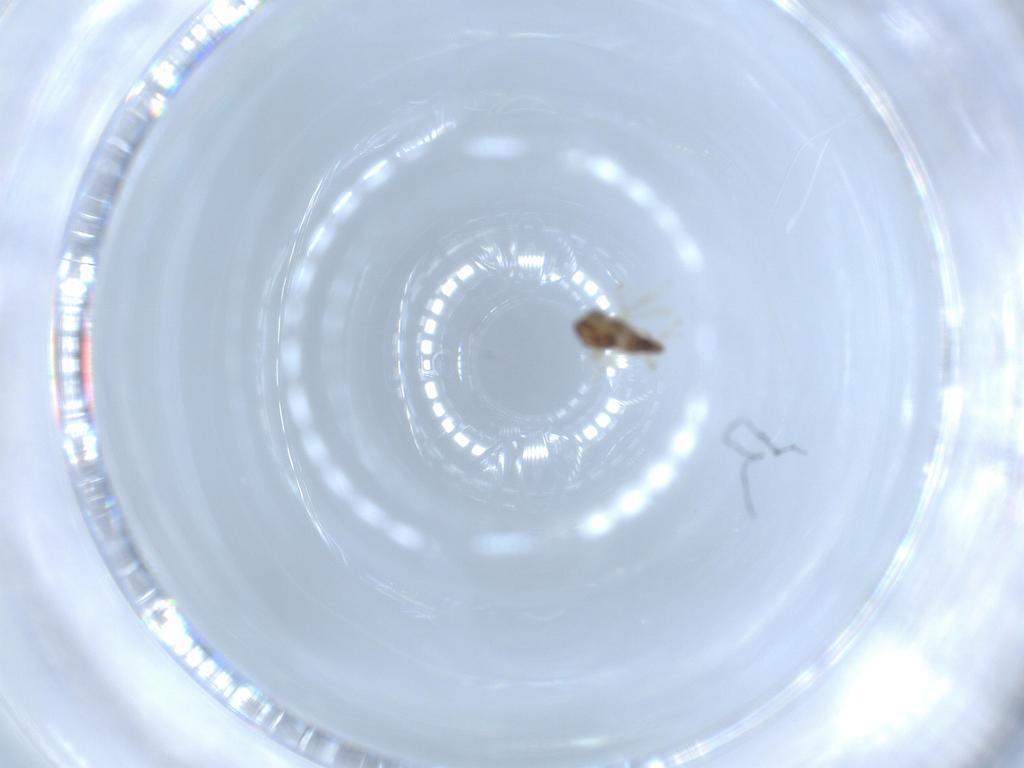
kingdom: Animalia
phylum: Arthropoda
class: Insecta
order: Diptera
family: Chironomidae
